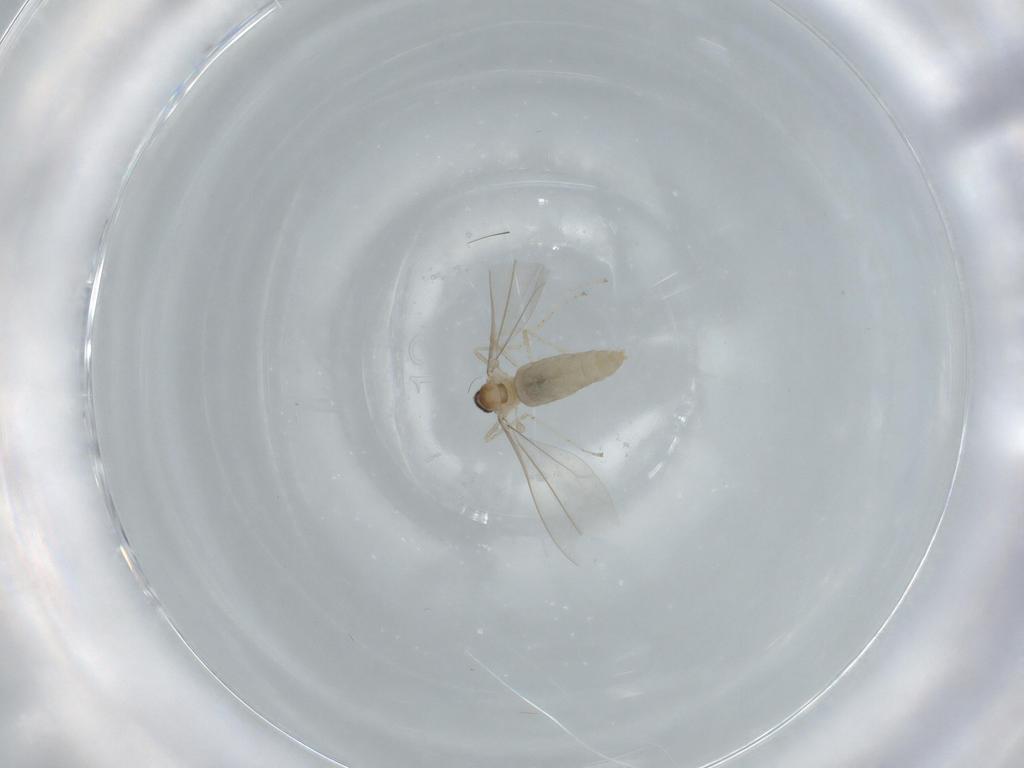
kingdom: Animalia
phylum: Arthropoda
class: Insecta
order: Diptera
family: Cecidomyiidae
